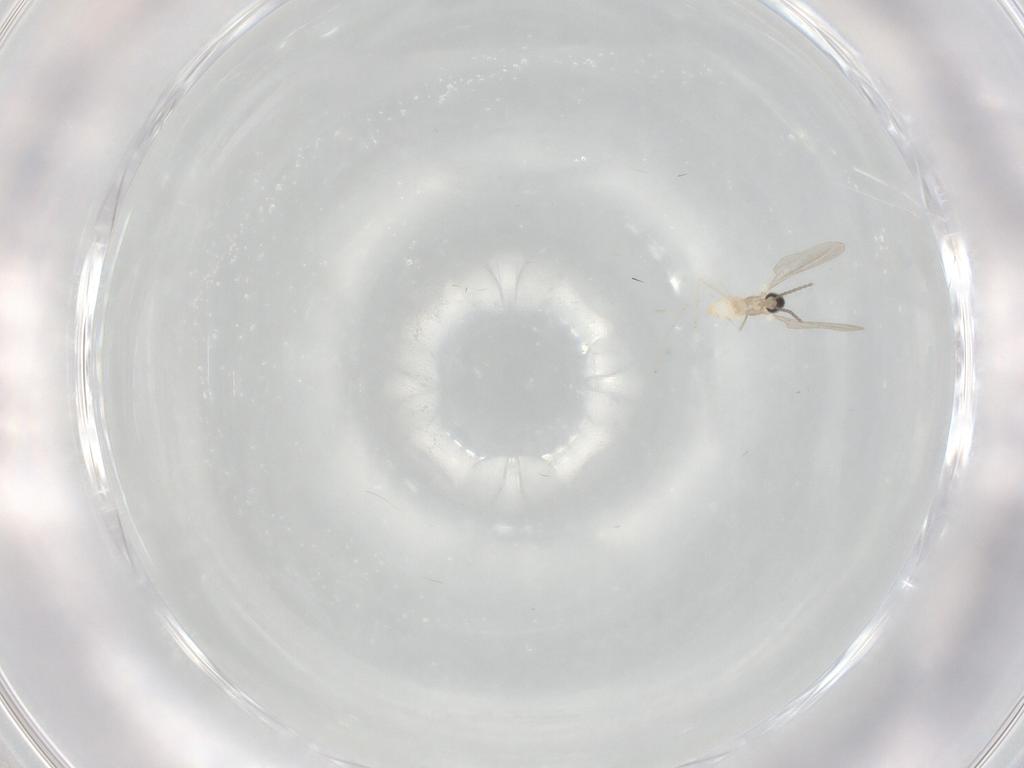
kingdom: Animalia
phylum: Arthropoda
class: Insecta
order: Diptera
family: Cecidomyiidae
